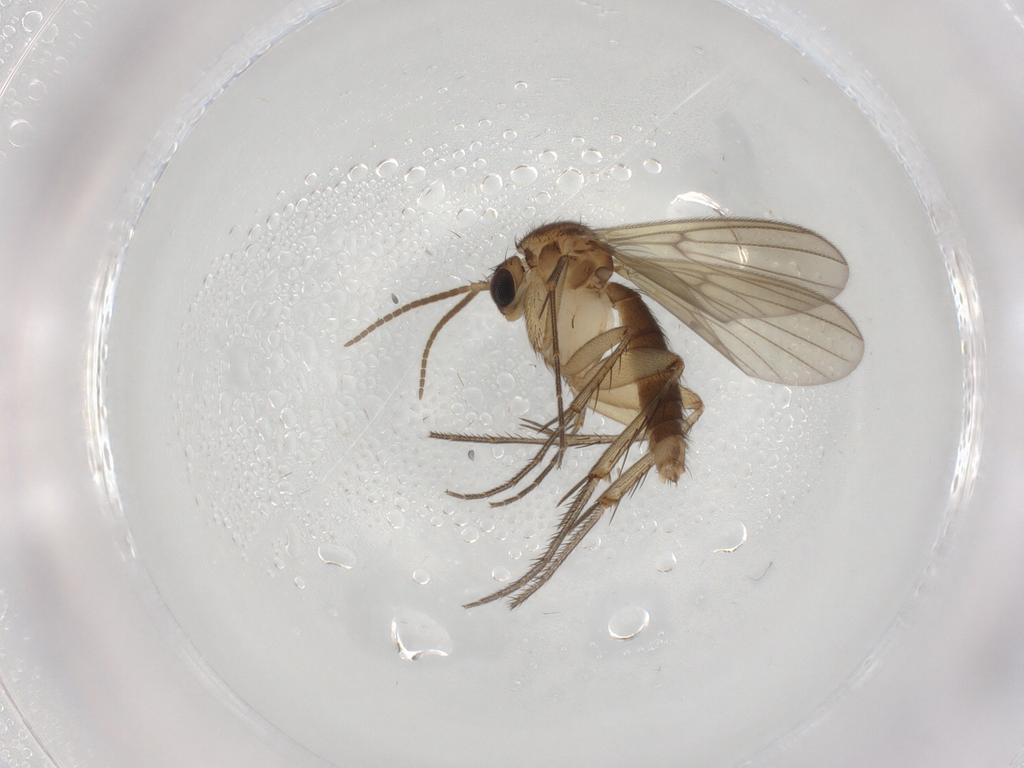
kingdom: Animalia
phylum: Arthropoda
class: Insecta
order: Diptera
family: Mycetophilidae
